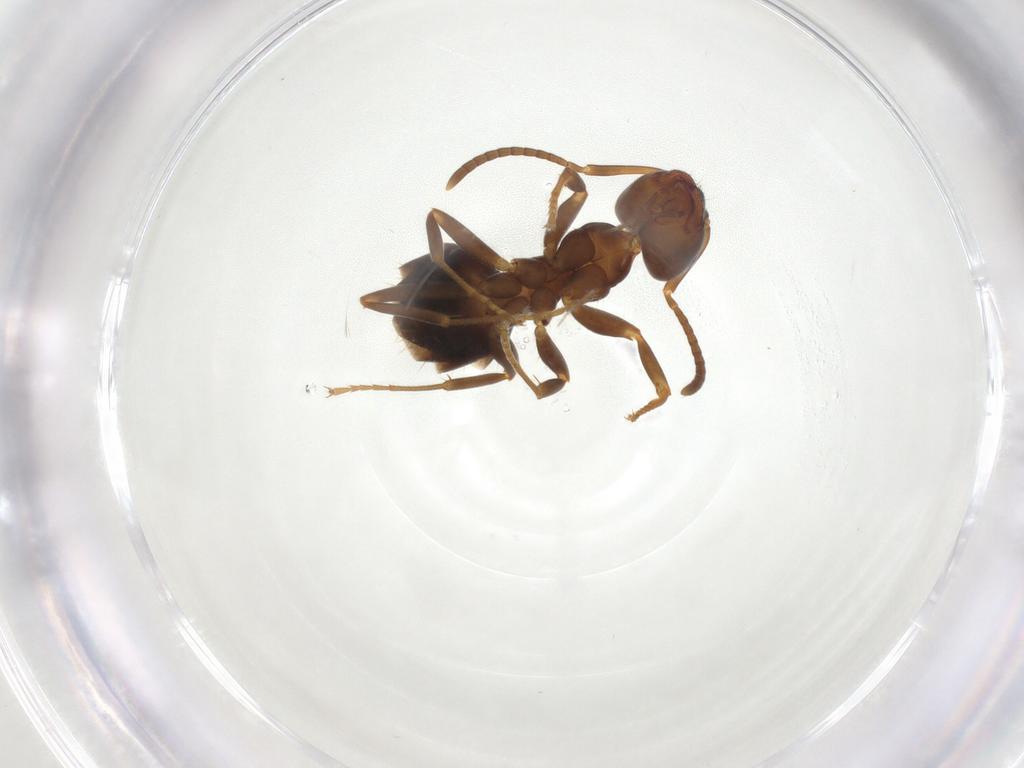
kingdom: Animalia
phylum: Arthropoda
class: Insecta
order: Hymenoptera
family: Formicidae
